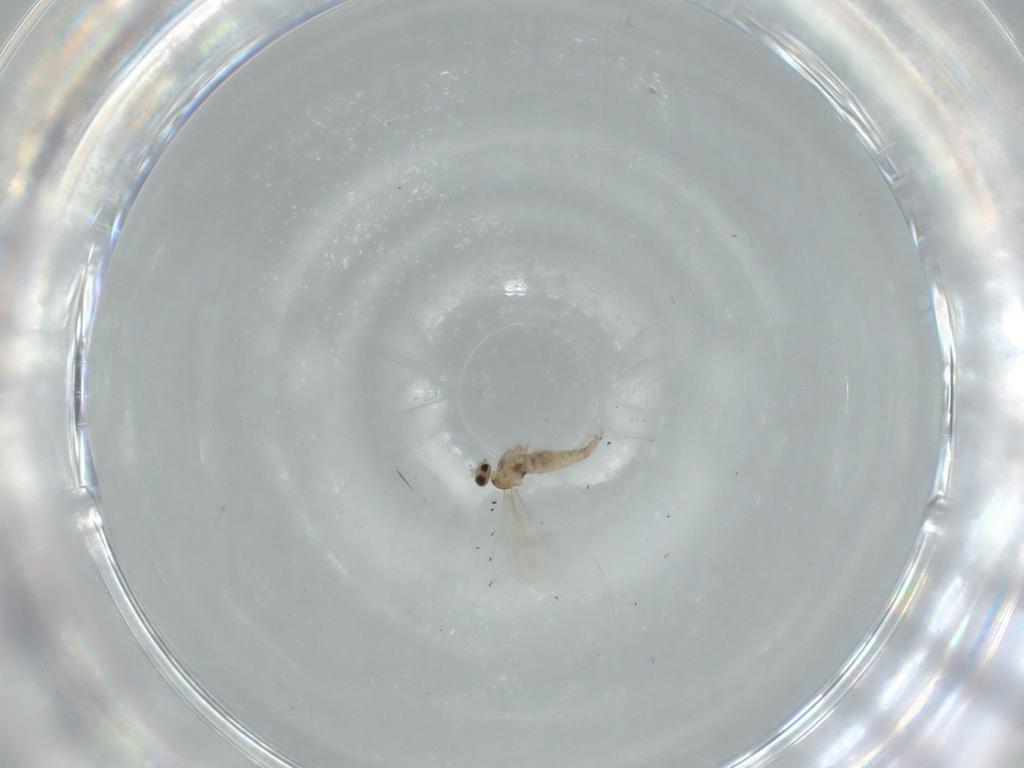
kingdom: Animalia
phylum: Arthropoda
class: Insecta
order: Diptera
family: Cecidomyiidae
